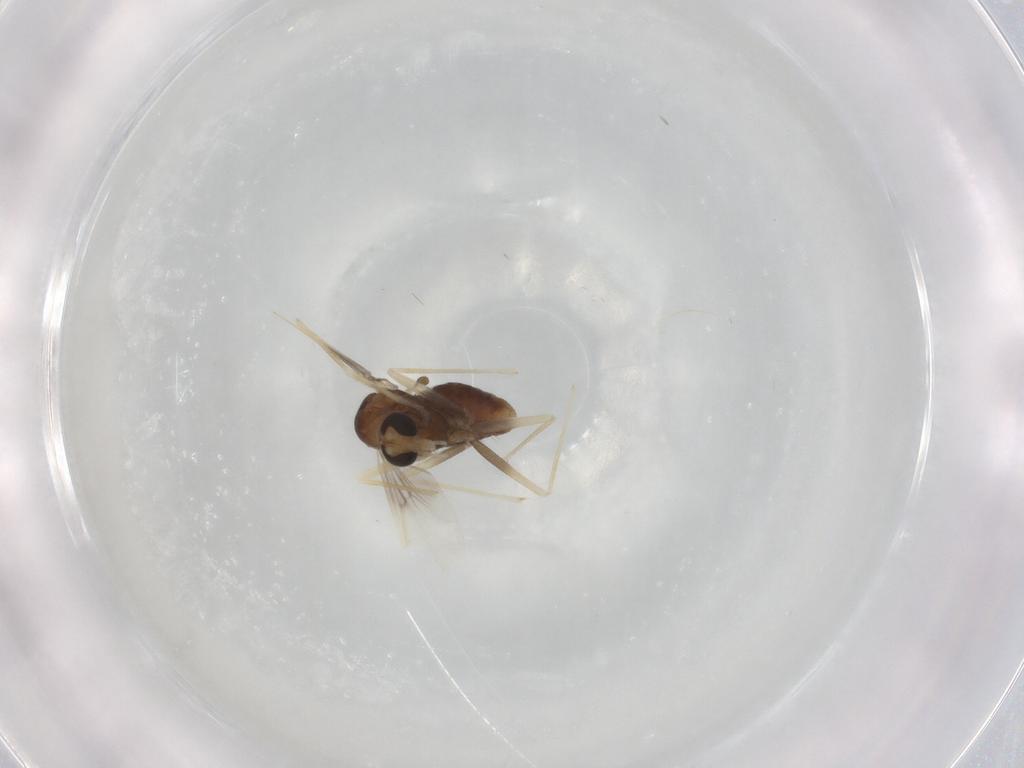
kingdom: Animalia
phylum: Arthropoda
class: Insecta
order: Diptera
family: Chironomidae
